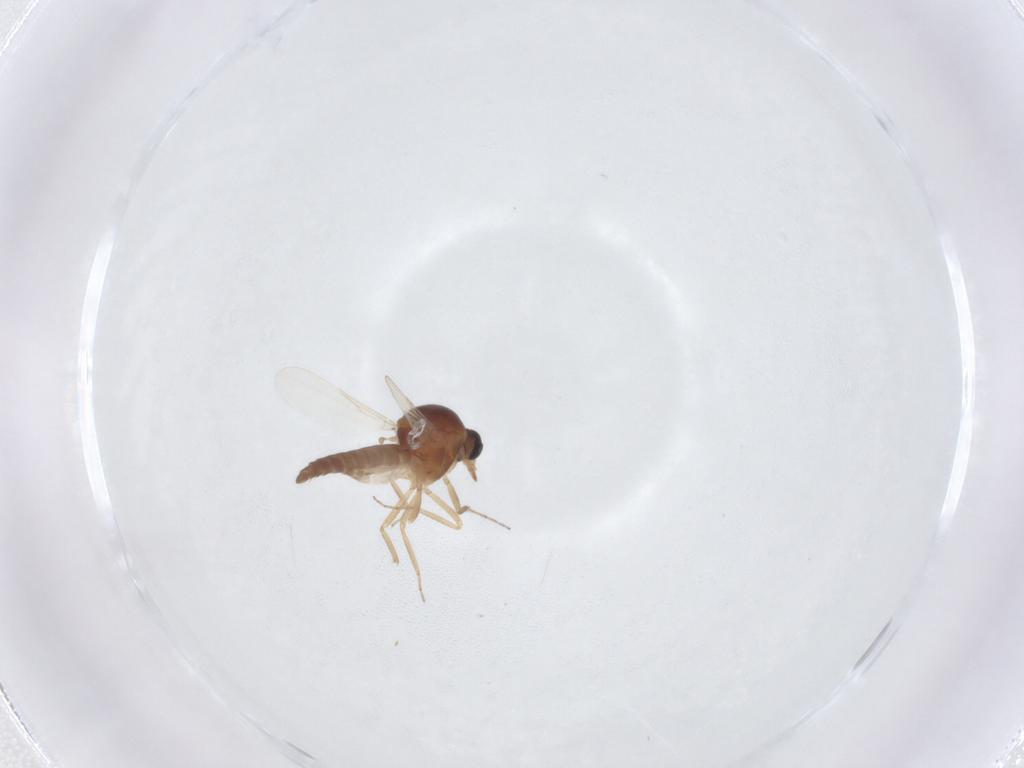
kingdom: Animalia
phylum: Arthropoda
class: Insecta
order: Diptera
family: Ceratopogonidae
